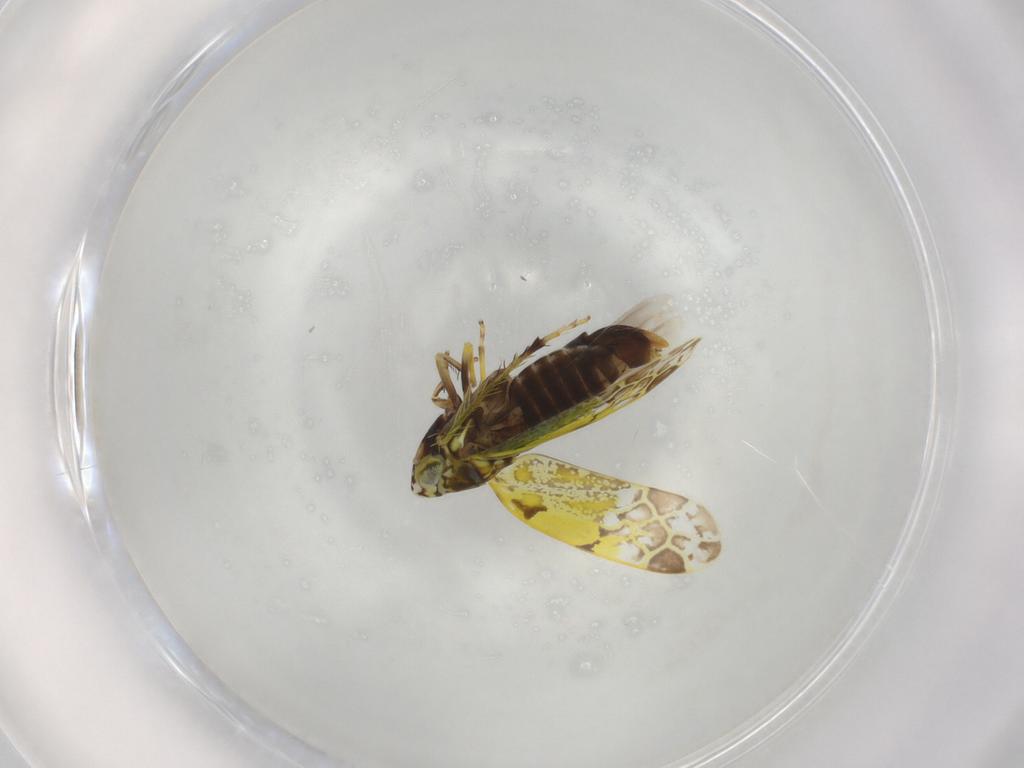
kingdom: Animalia
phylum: Arthropoda
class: Insecta
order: Hemiptera
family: Cicadellidae
